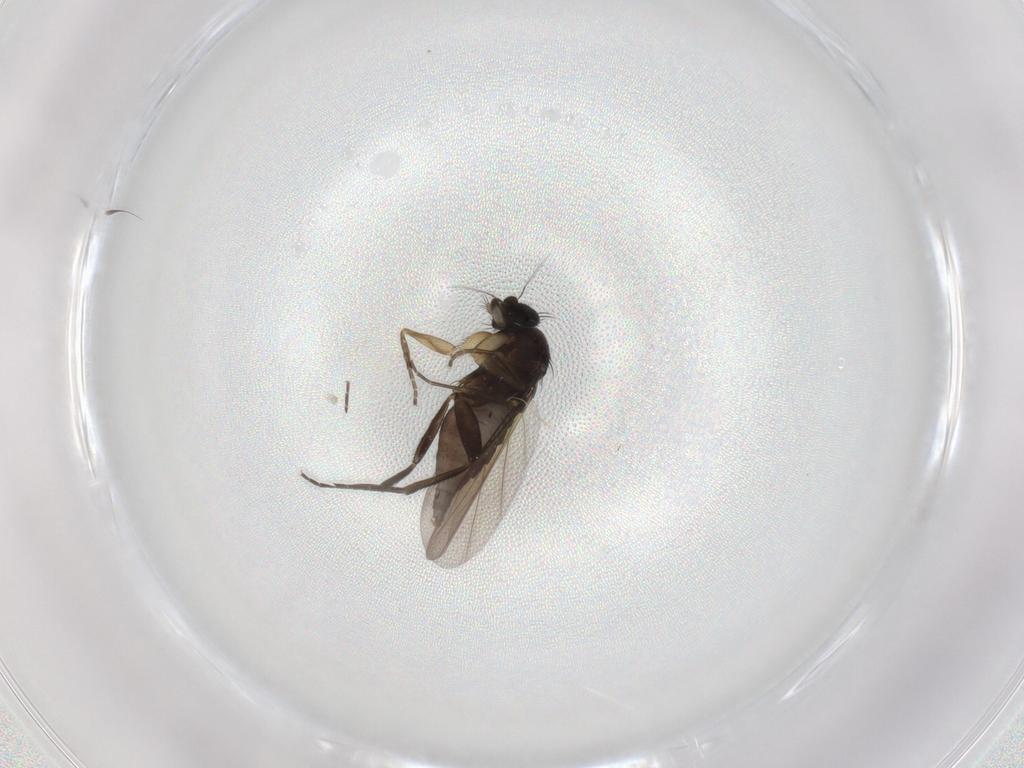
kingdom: Animalia
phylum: Arthropoda
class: Insecta
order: Diptera
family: Phoridae
